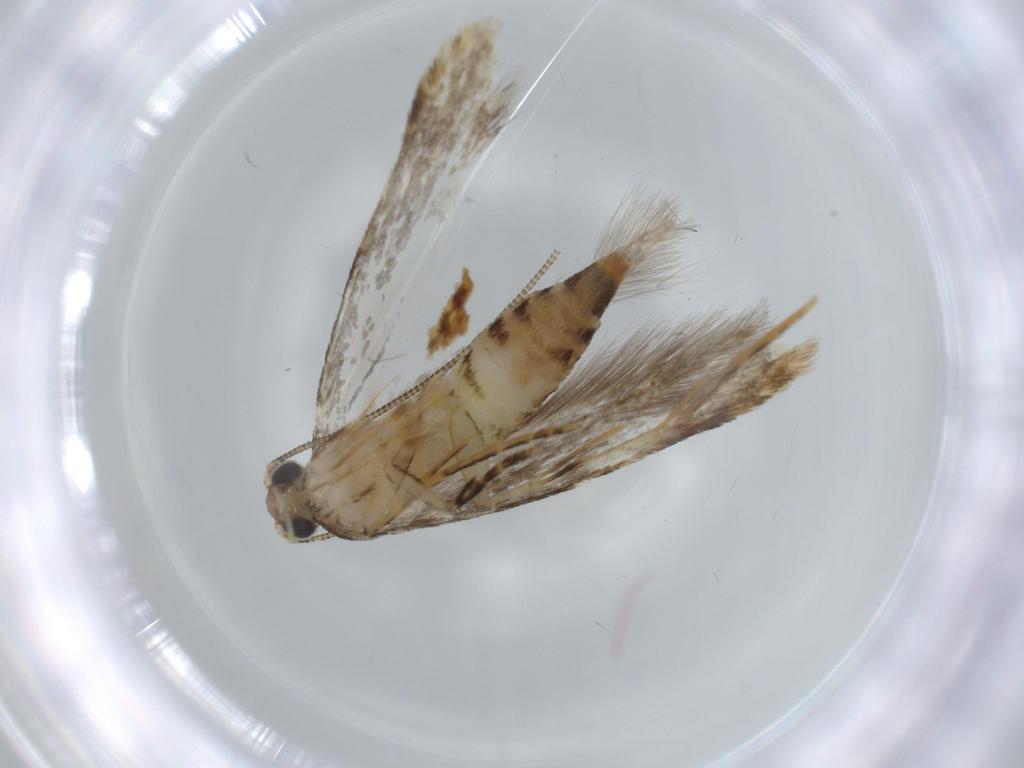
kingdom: Animalia
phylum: Arthropoda
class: Insecta
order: Lepidoptera
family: Tineidae
